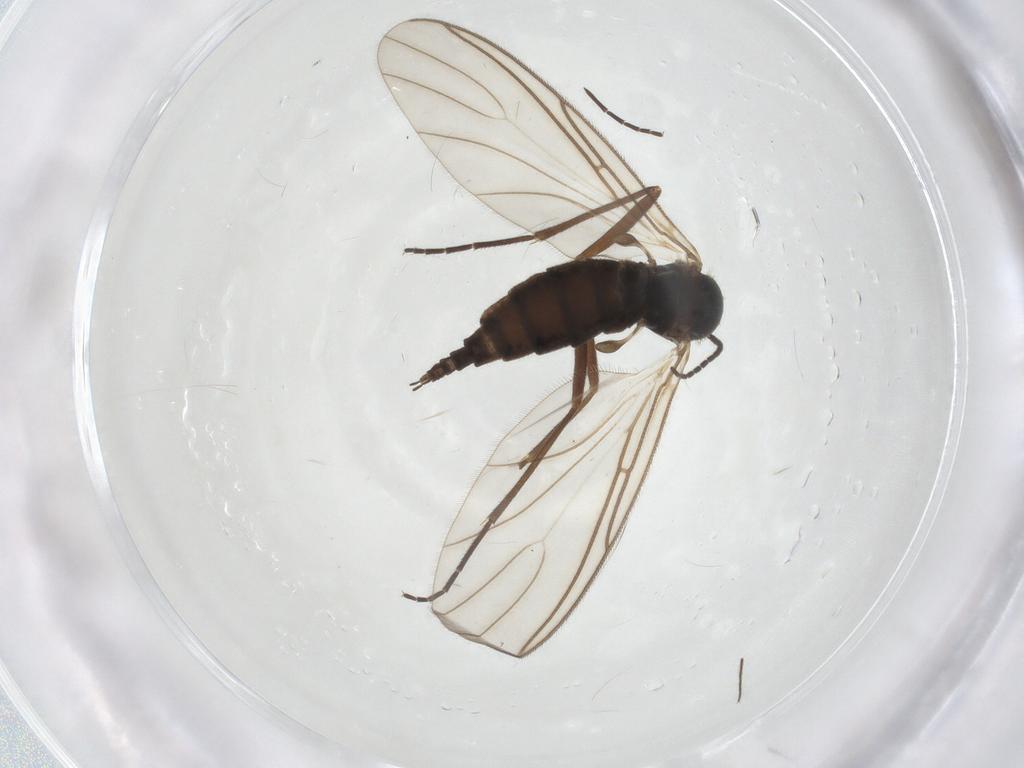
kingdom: Animalia
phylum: Arthropoda
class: Insecta
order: Diptera
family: Sciaridae
